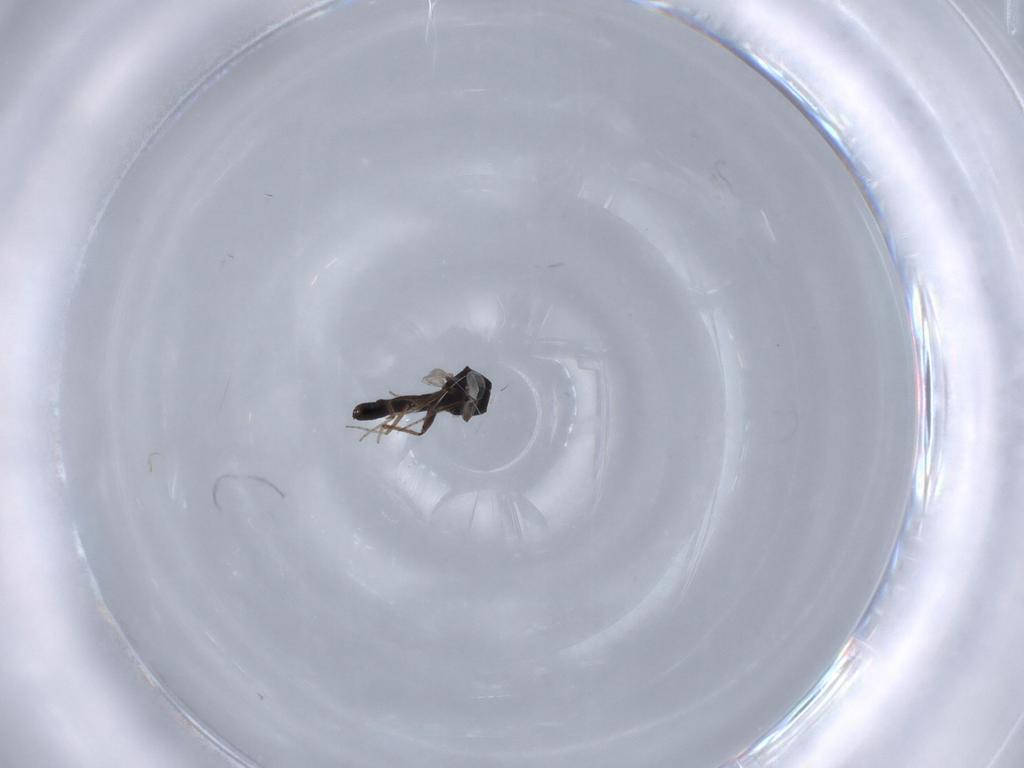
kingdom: Animalia
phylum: Arthropoda
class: Insecta
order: Diptera
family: Ceratopogonidae
